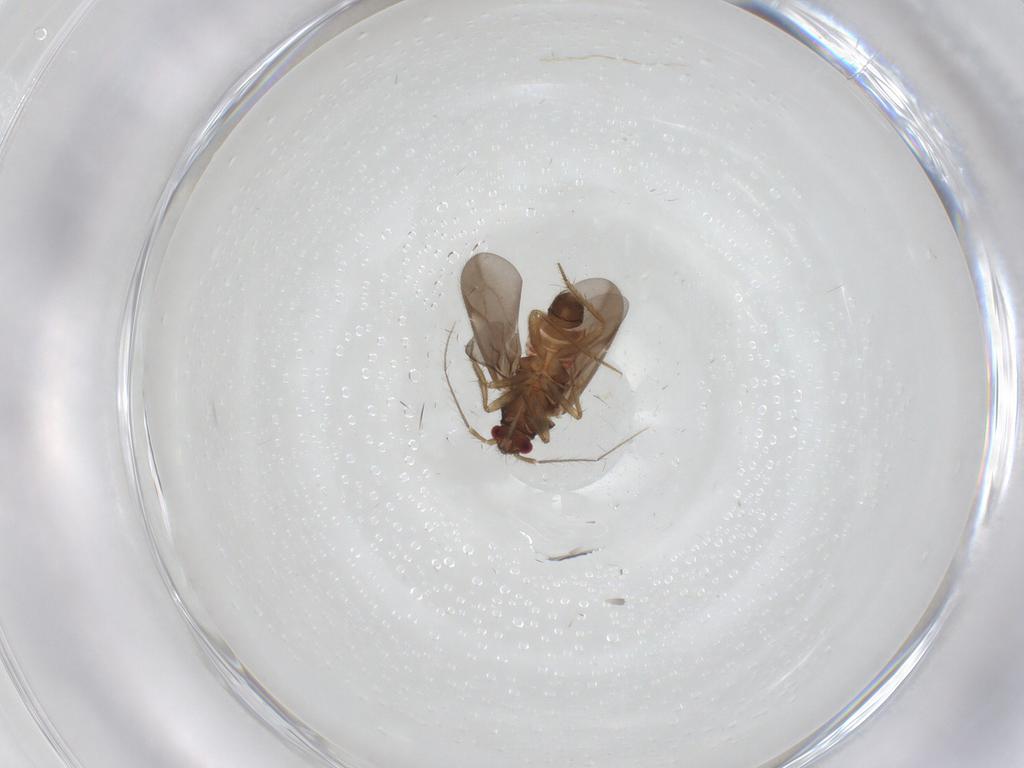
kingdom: Animalia
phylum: Arthropoda
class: Insecta
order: Hemiptera
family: Ceratocombidae
